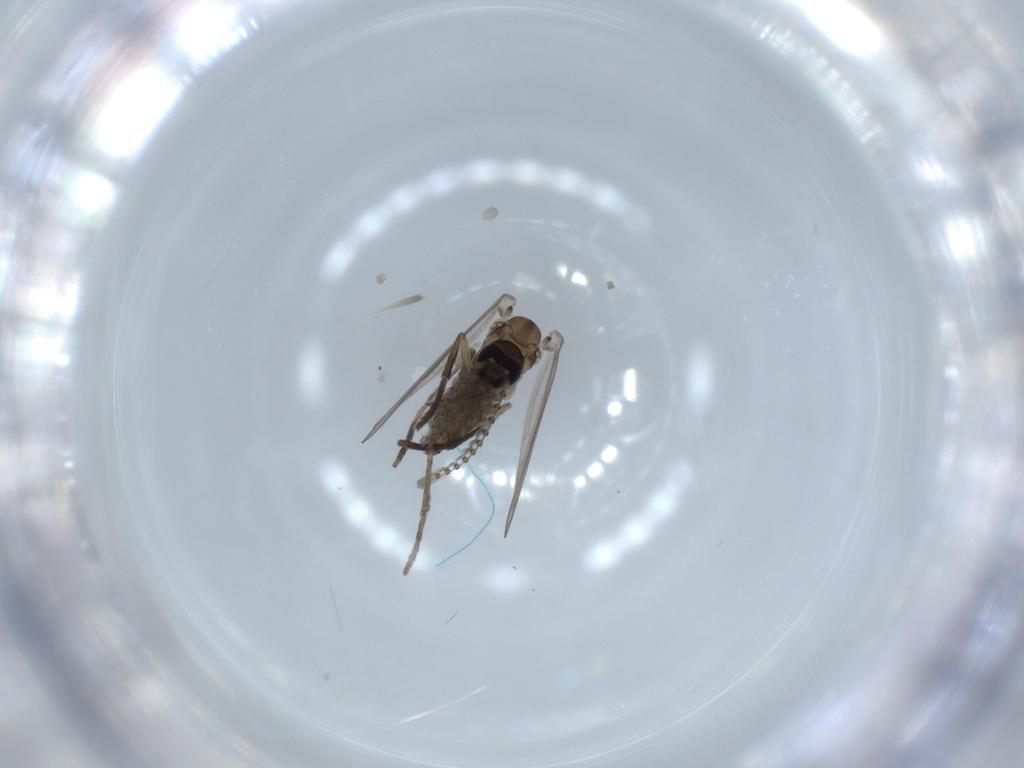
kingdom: Animalia
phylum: Arthropoda
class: Insecta
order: Diptera
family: Psychodidae
